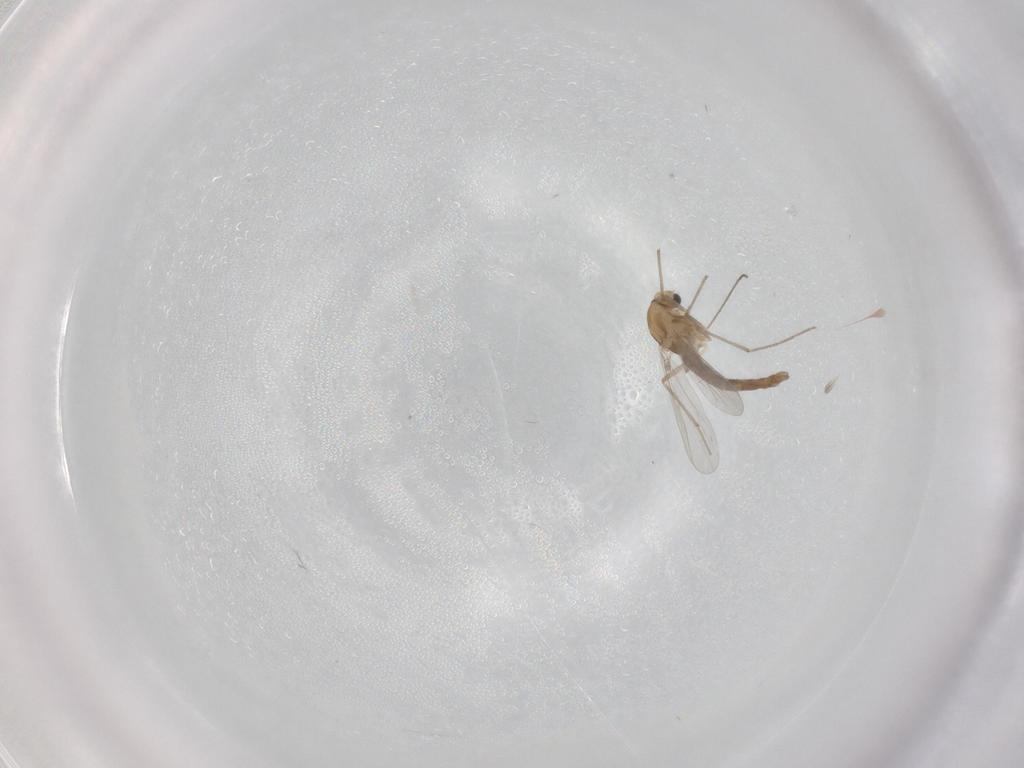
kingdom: Animalia
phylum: Arthropoda
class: Insecta
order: Diptera
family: Chironomidae
